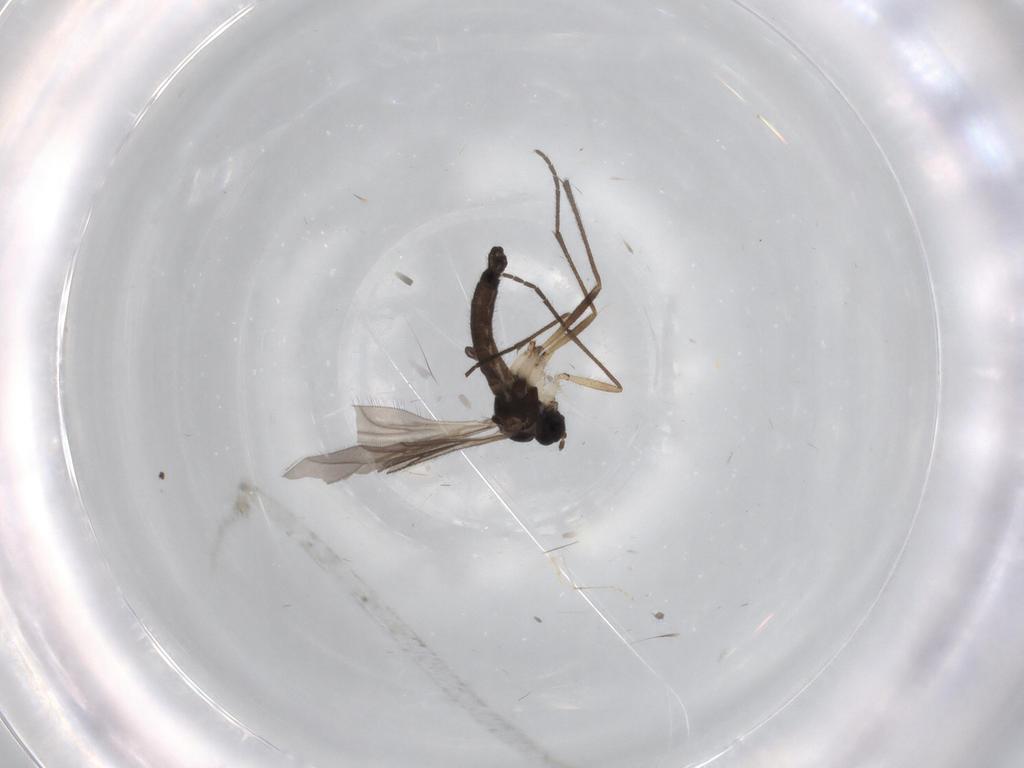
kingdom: Animalia
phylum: Arthropoda
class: Insecta
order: Diptera
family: Sciaridae
